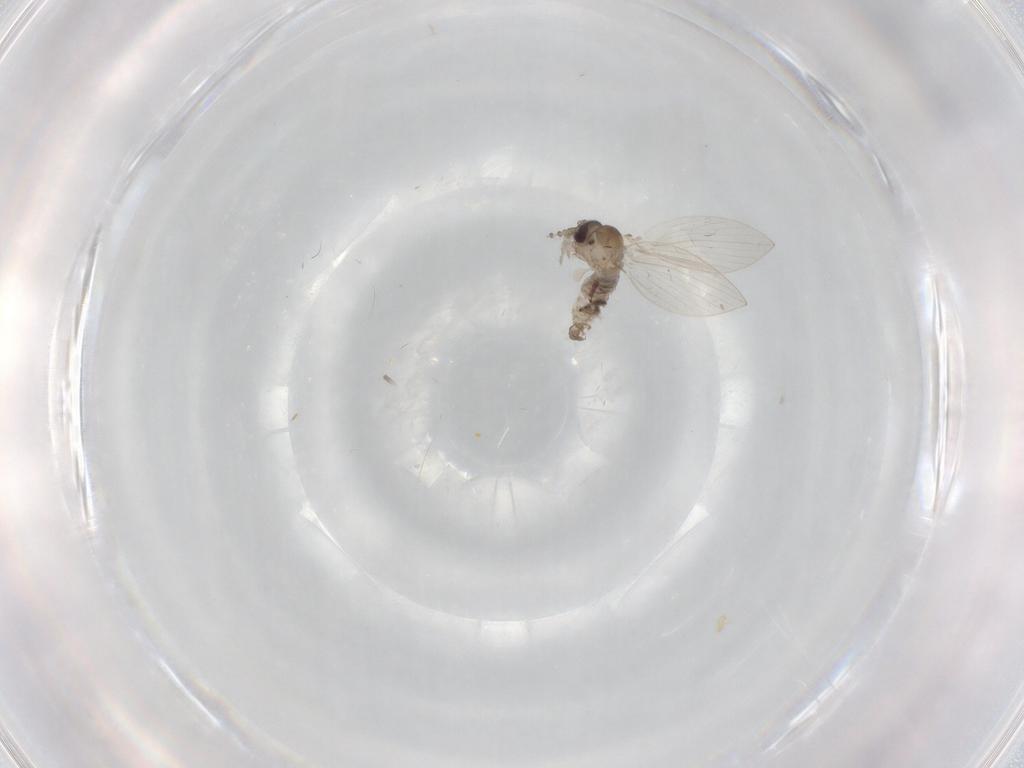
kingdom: Animalia
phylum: Arthropoda
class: Insecta
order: Diptera
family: Psychodidae
